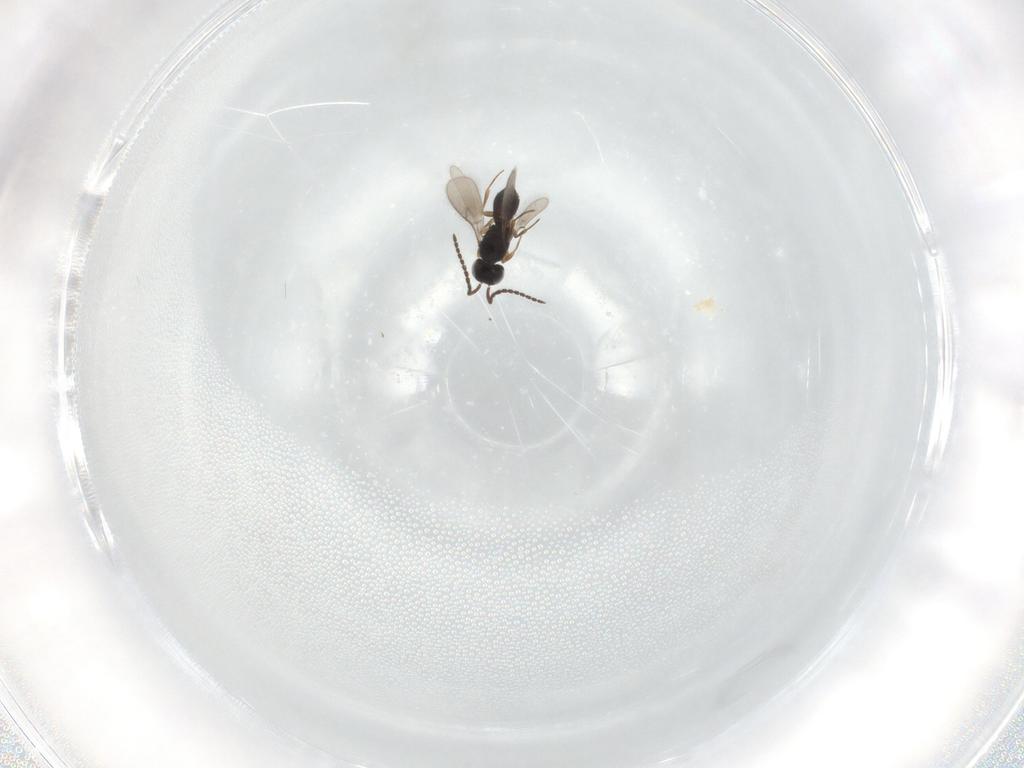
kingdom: Animalia
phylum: Arthropoda
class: Insecta
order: Hymenoptera
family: Scelionidae
